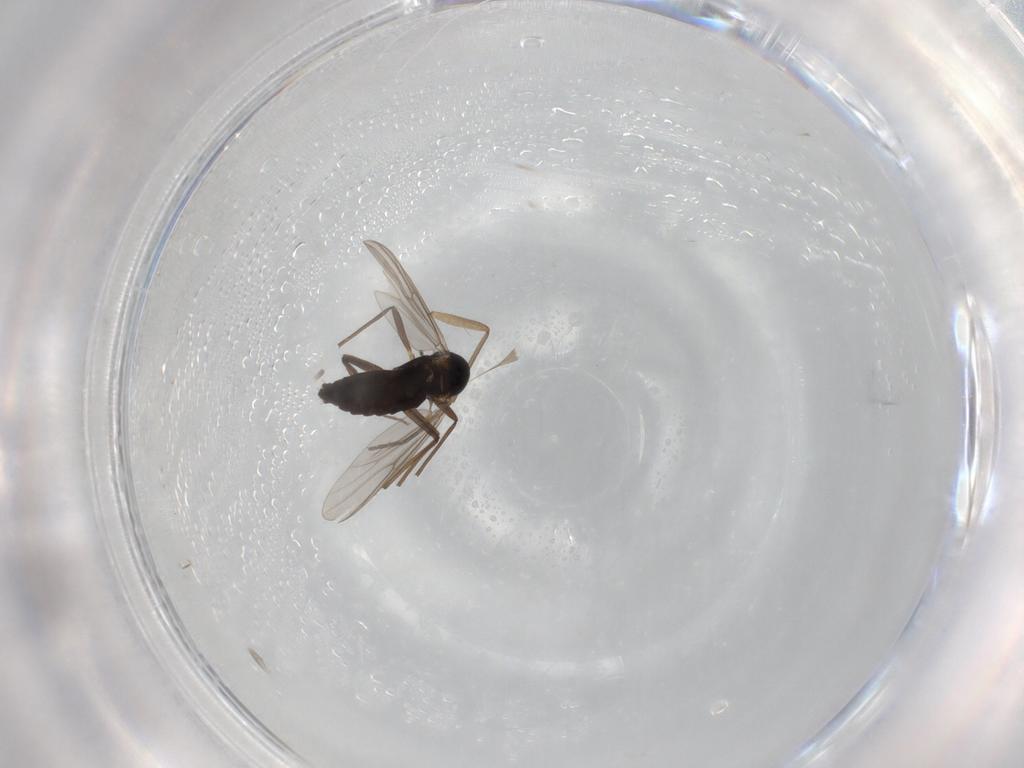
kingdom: Animalia
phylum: Arthropoda
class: Insecta
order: Diptera
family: Chironomidae
